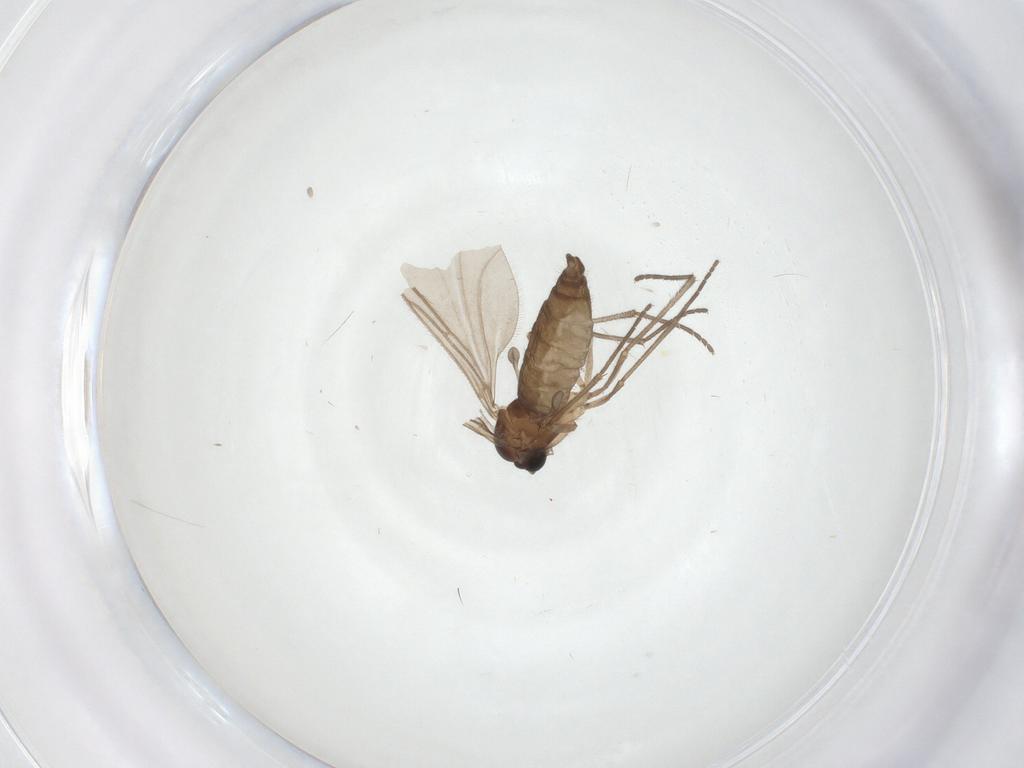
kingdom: Animalia
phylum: Arthropoda
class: Insecta
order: Diptera
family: Sciaridae
